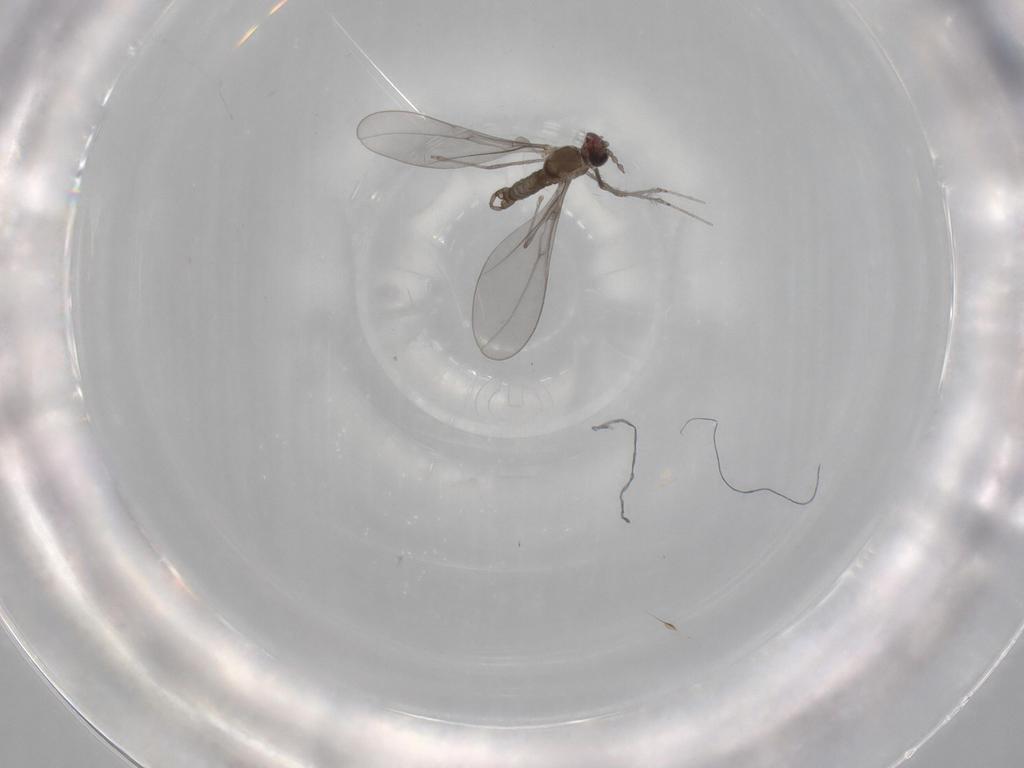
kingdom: Animalia
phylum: Arthropoda
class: Insecta
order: Diptera
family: Cecidomyiidae
